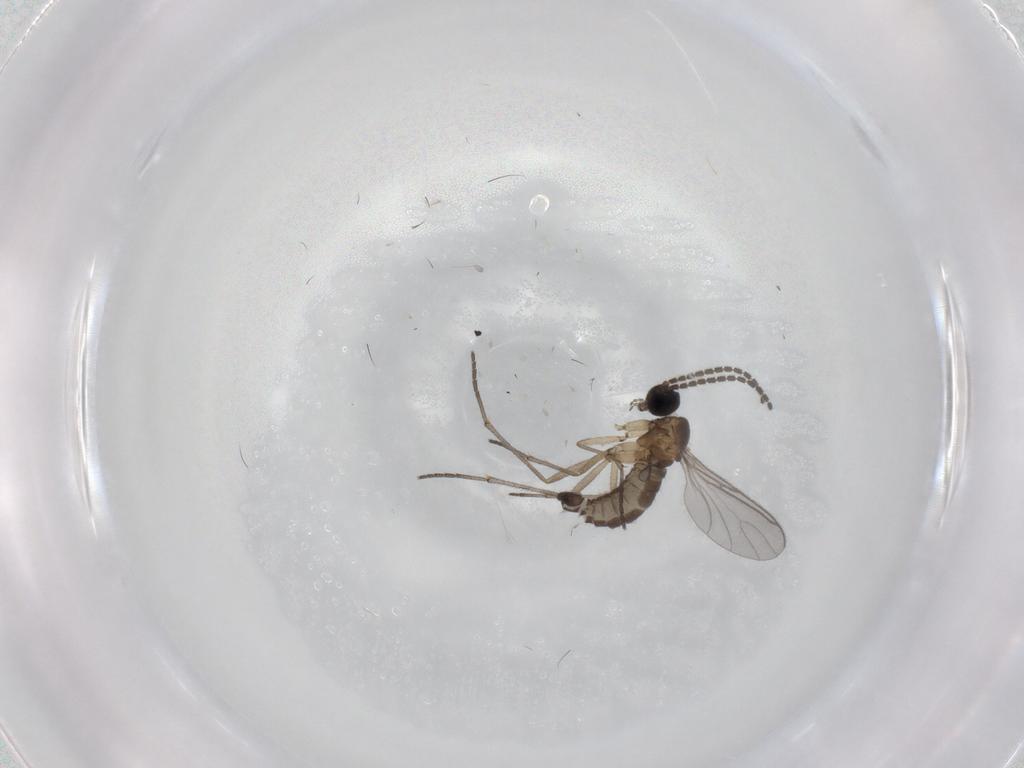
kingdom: Animalia
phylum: Arthropoda
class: Insecta
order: Diptera
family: Sciaridae
